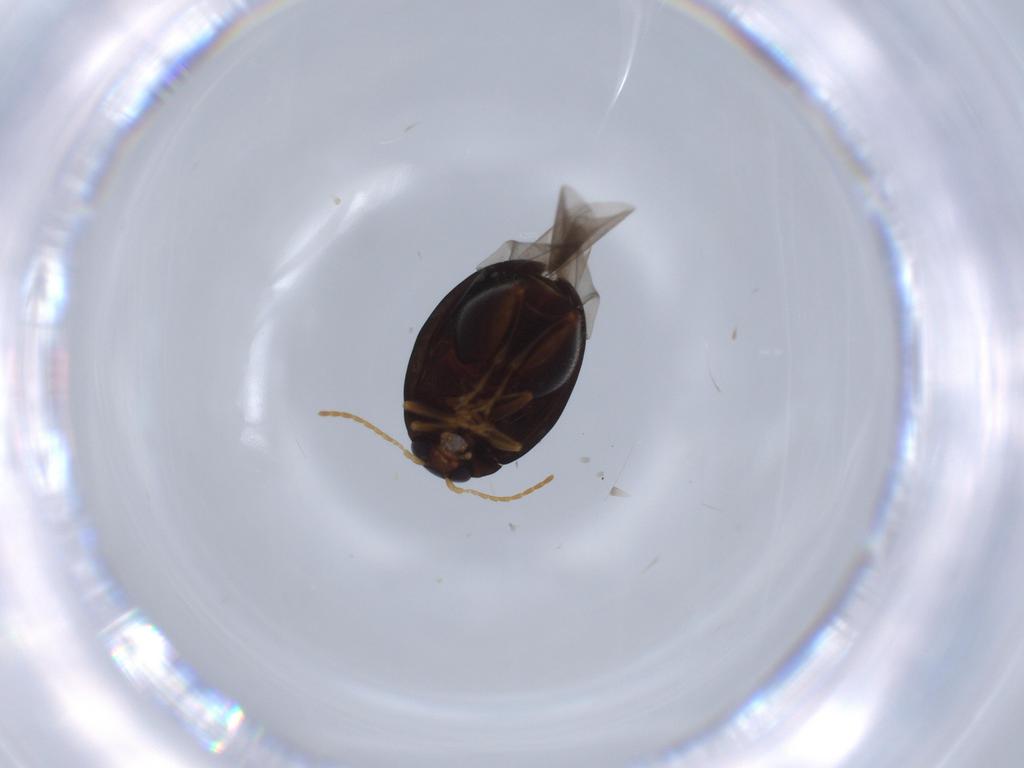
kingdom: Animalia
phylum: Arthropoda
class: Insecta
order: Coleoptera
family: Chrysomelidae
